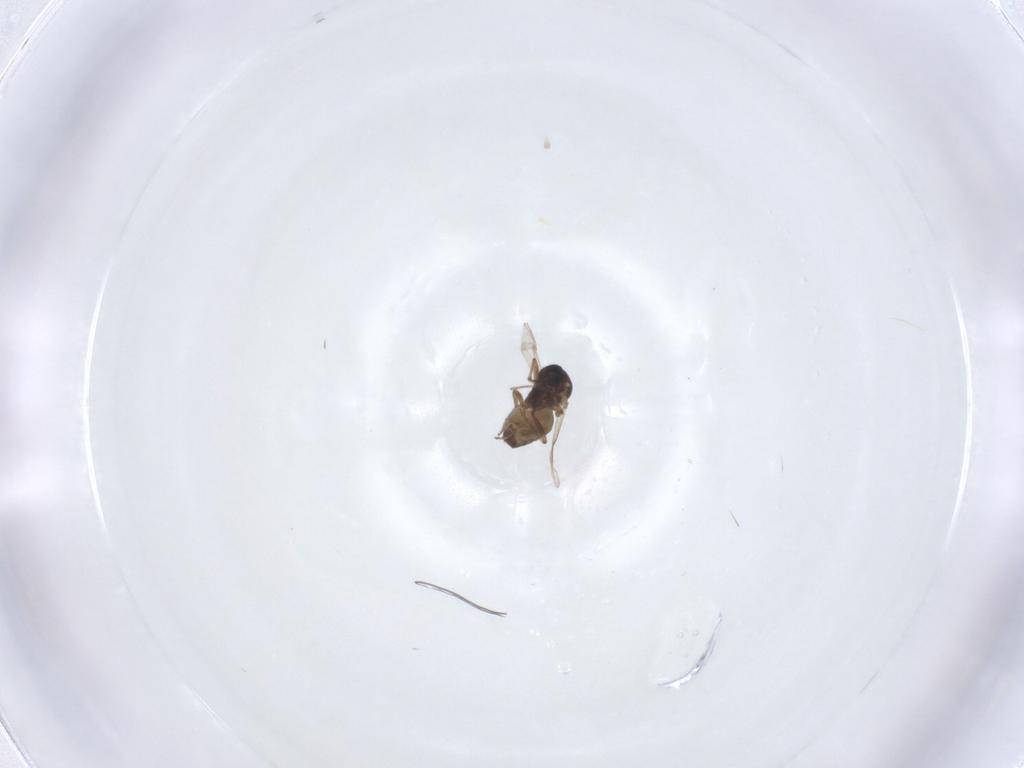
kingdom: Animalia
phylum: Arthropoda
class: Insecta
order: Diptera
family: Ceratopogonidae
